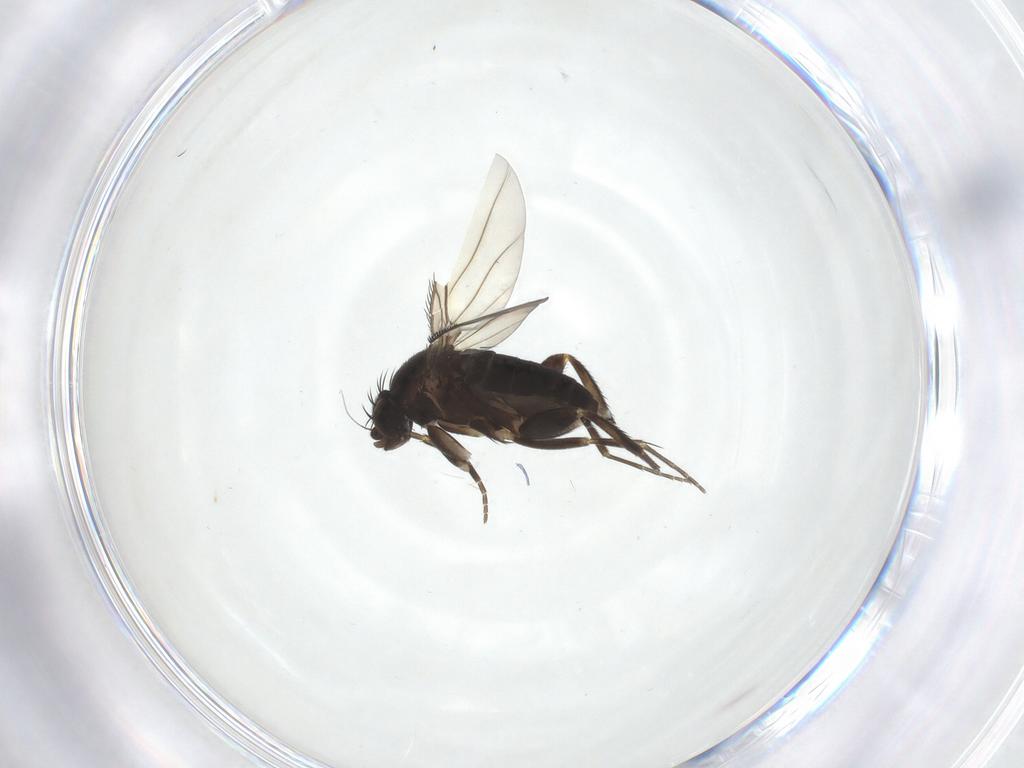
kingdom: Animalia
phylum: Arthropoda
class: Insecta
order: Diptera
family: Phoridae
